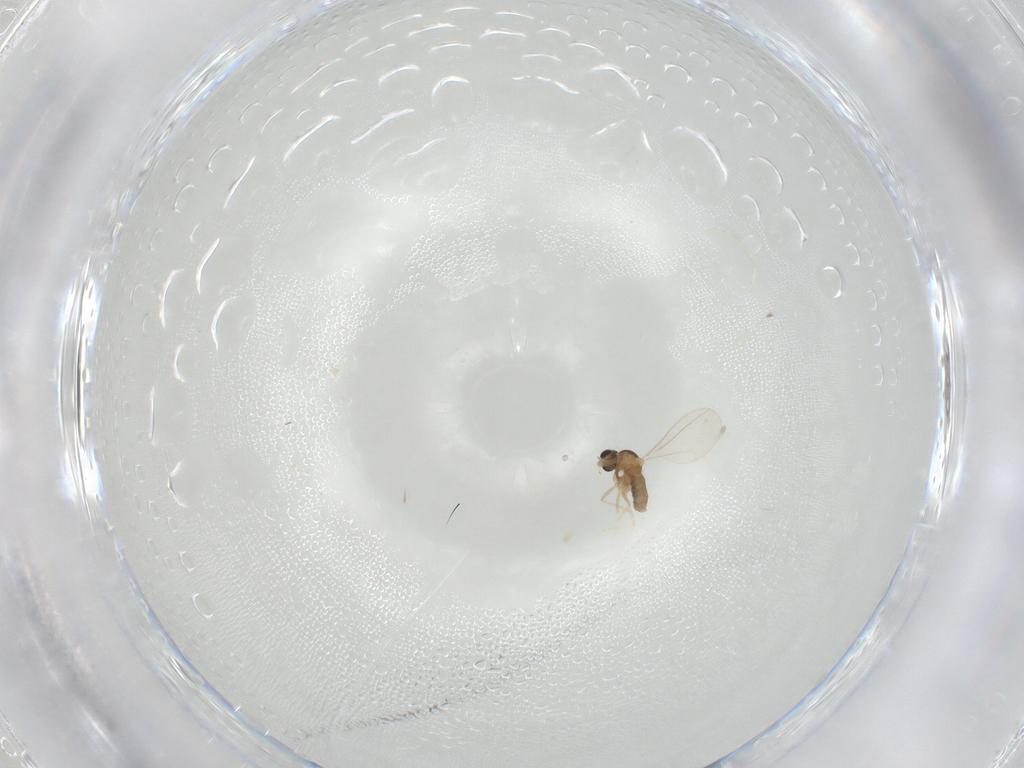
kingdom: Animalia
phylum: Arthropoda
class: Insecta
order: Diptera
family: Cecidomyiidae
